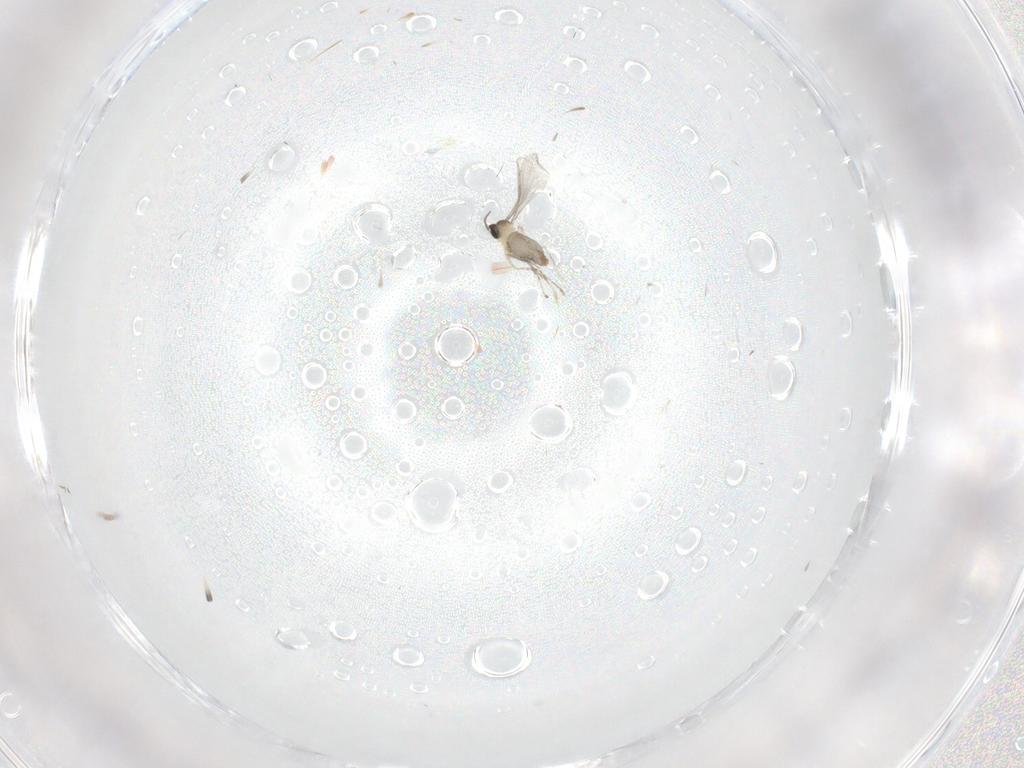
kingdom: Animalia
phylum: Arthropoda
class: Insecta
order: Diptera
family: Cecidomyiidae
